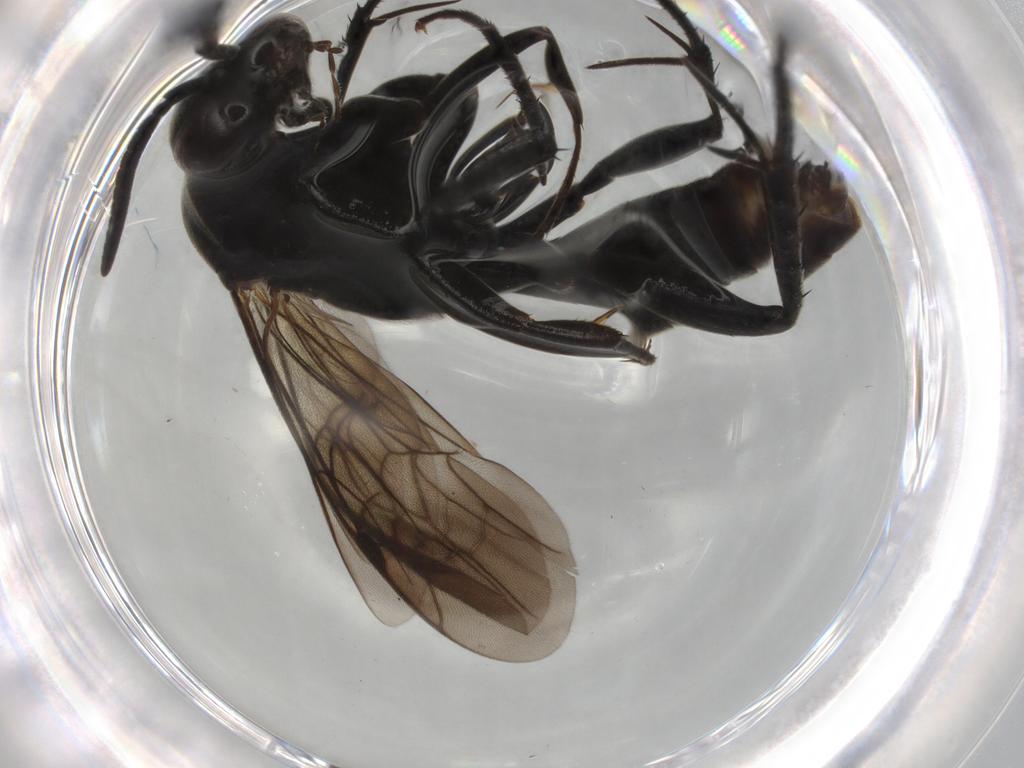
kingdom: Animalia
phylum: Arthropoda
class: Insecta
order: Hymenoptera
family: Pompilidae
